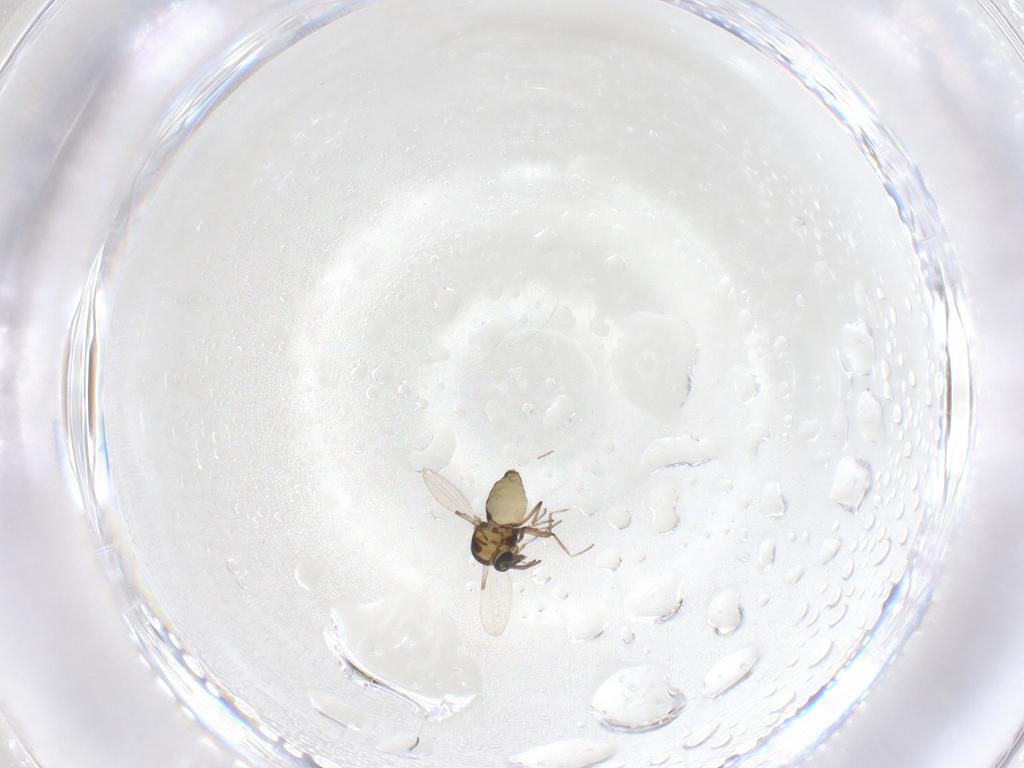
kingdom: Animalia
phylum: Arthropoda
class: Insecta
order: Diptera
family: Ceratopogonidae
